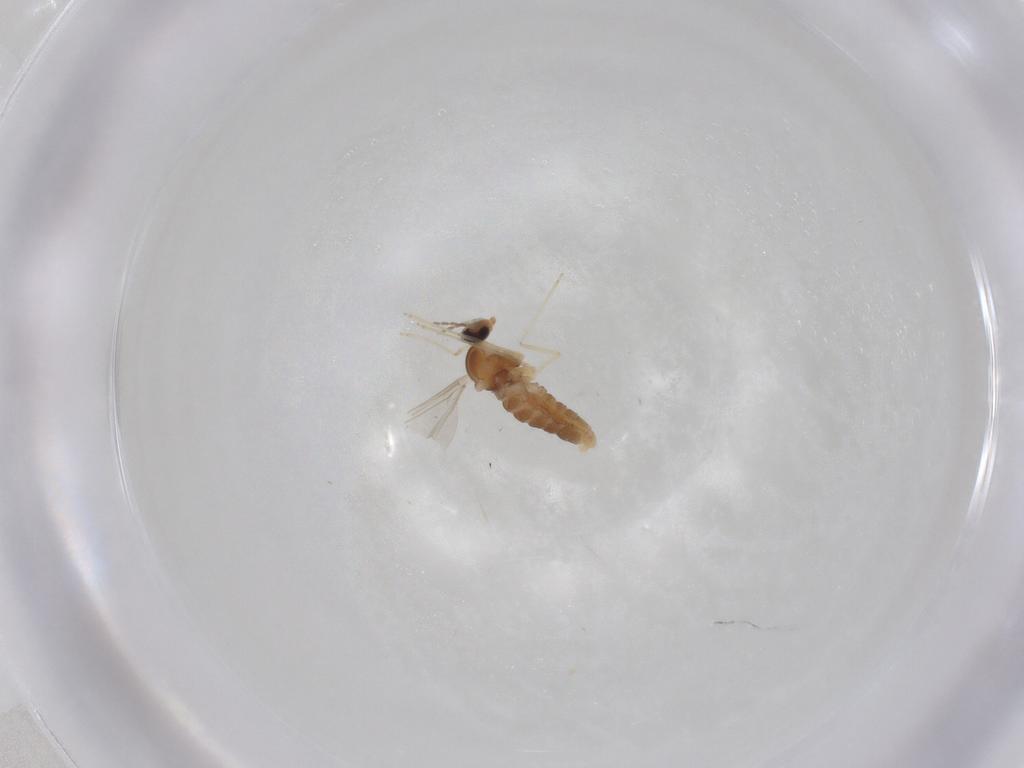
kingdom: Animalia
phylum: Arthropoda
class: Insecta
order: Diptera
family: Cecidomyiidae
